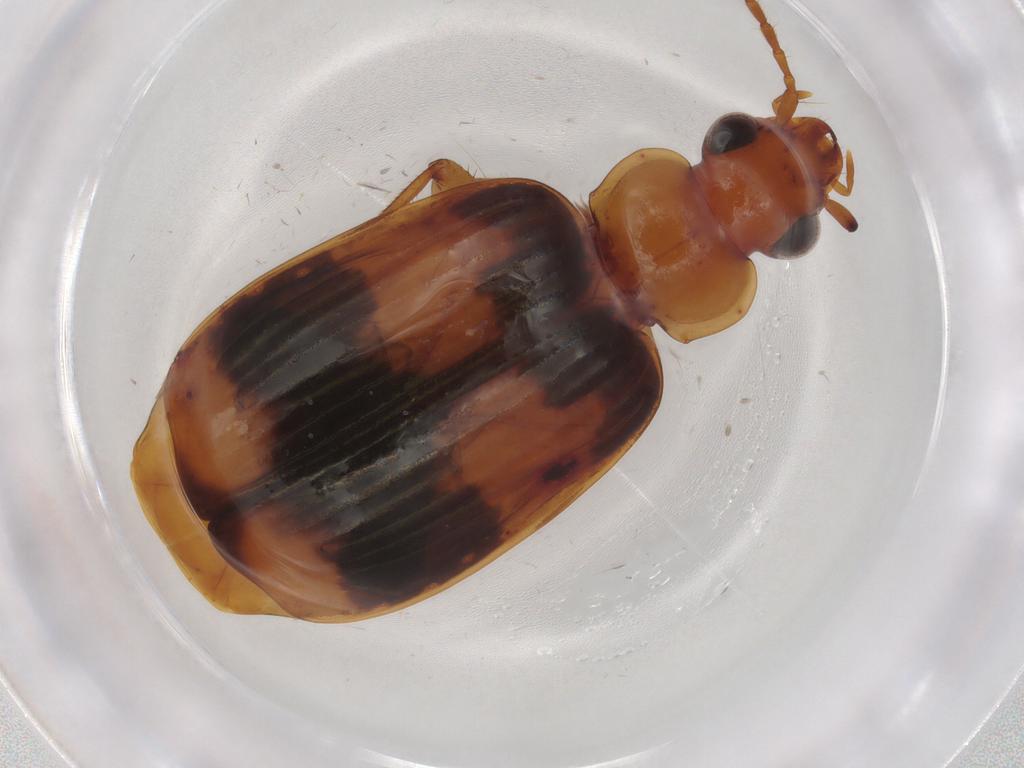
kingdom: Animalia
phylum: Arthropoda
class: Insecta
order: Coleoptera
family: Carabidae
